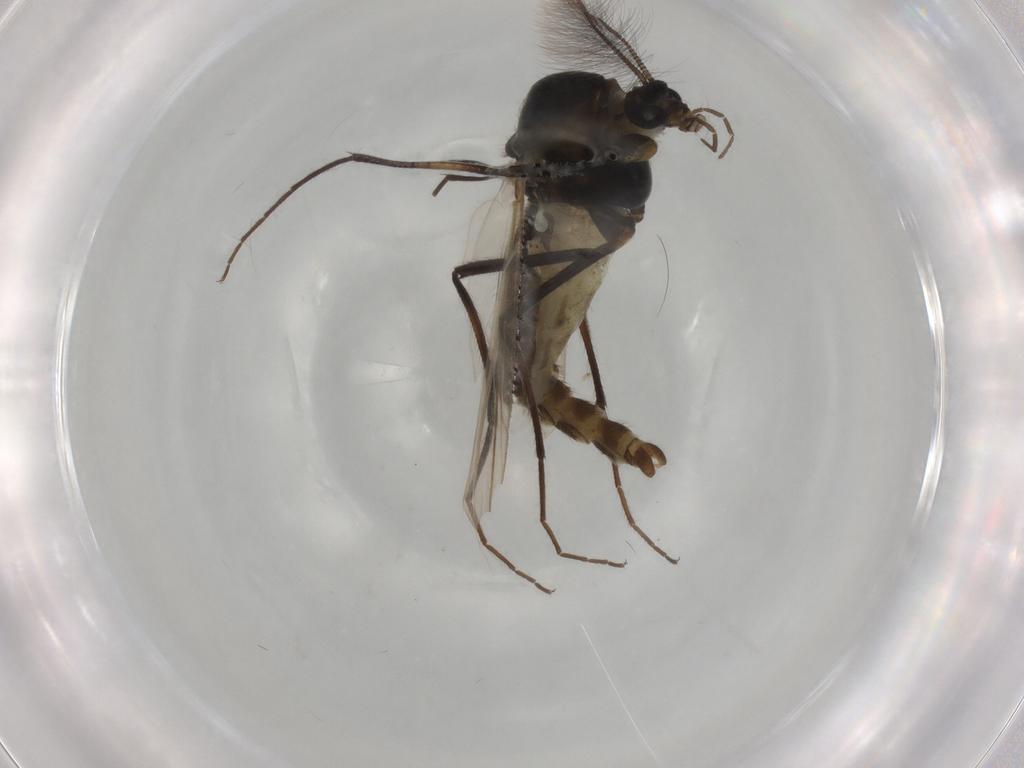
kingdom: Animalia
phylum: Arthropoda
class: Insecta
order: Diptera
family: Chironomidae
